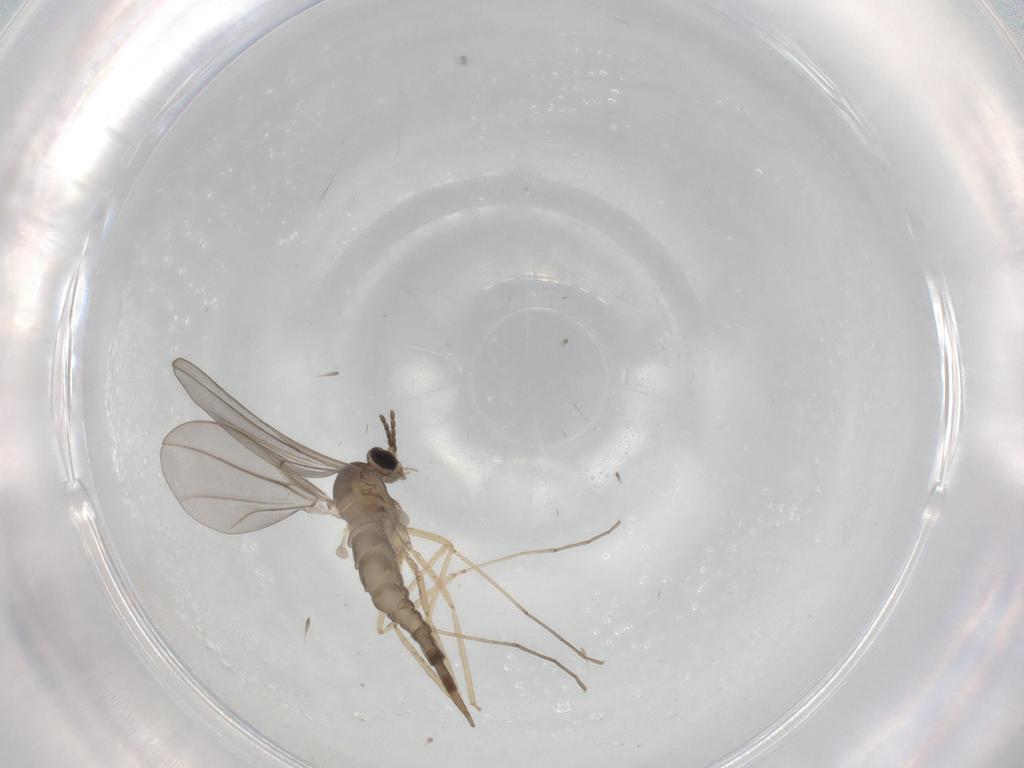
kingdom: Animalia
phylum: Arthropoda
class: Insecta
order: Diptera
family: Cecidomyiidae
